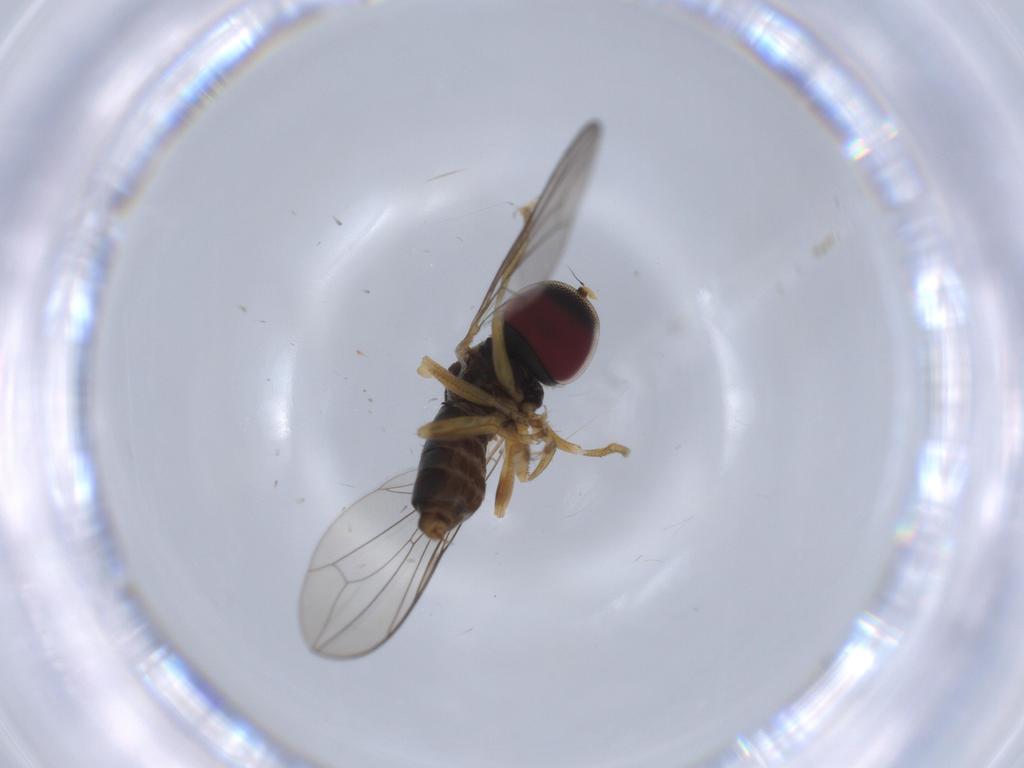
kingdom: Animalia
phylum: Arthropoda
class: Insecta
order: Diptera
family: Pipunculidae
